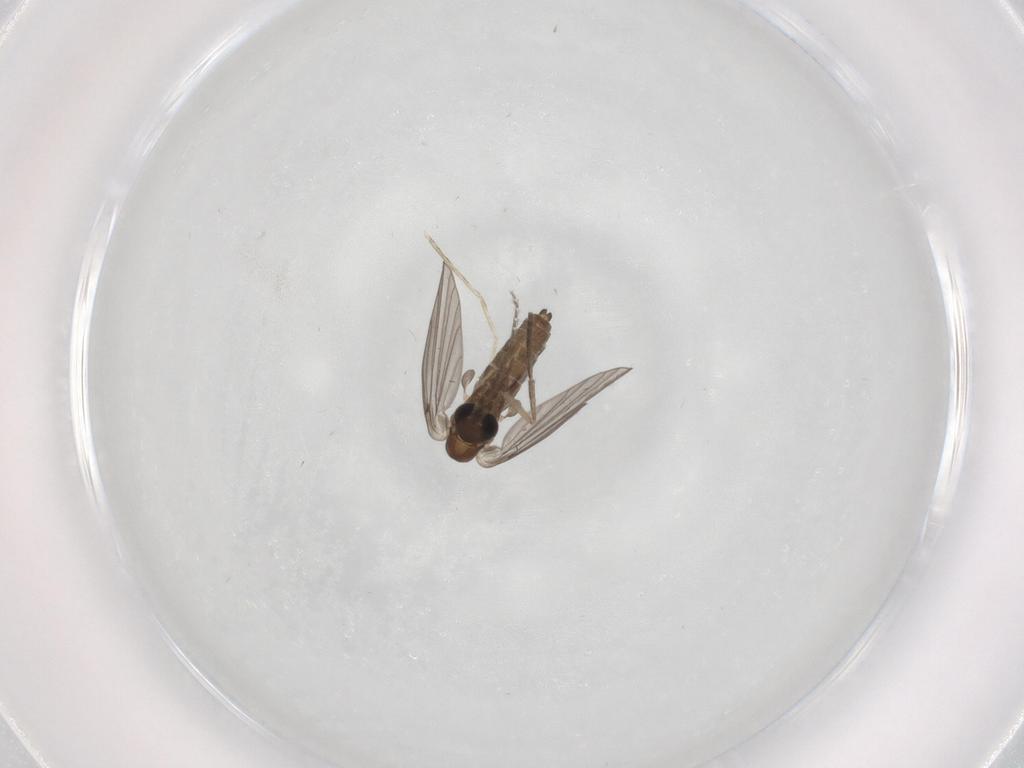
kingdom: Animalia
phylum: Arthropoda
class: Insecta
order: Diptera
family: Psychodidae
